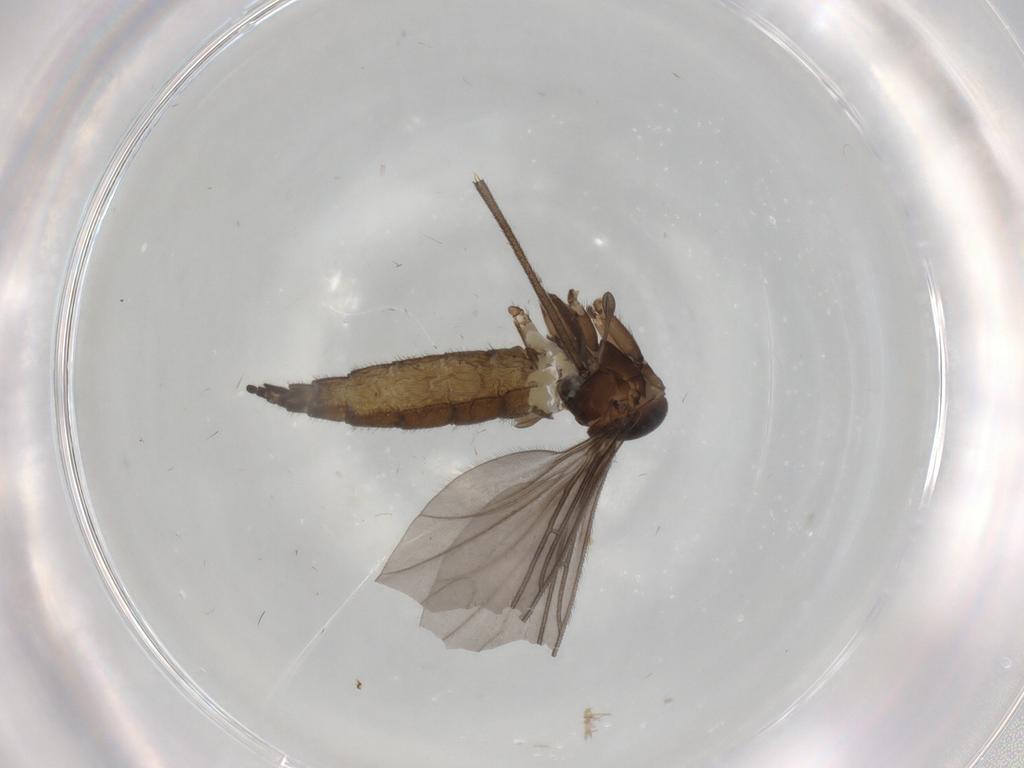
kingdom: Animalia
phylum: Arthropoda
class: Insecta
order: Diptera
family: Sciaridae
